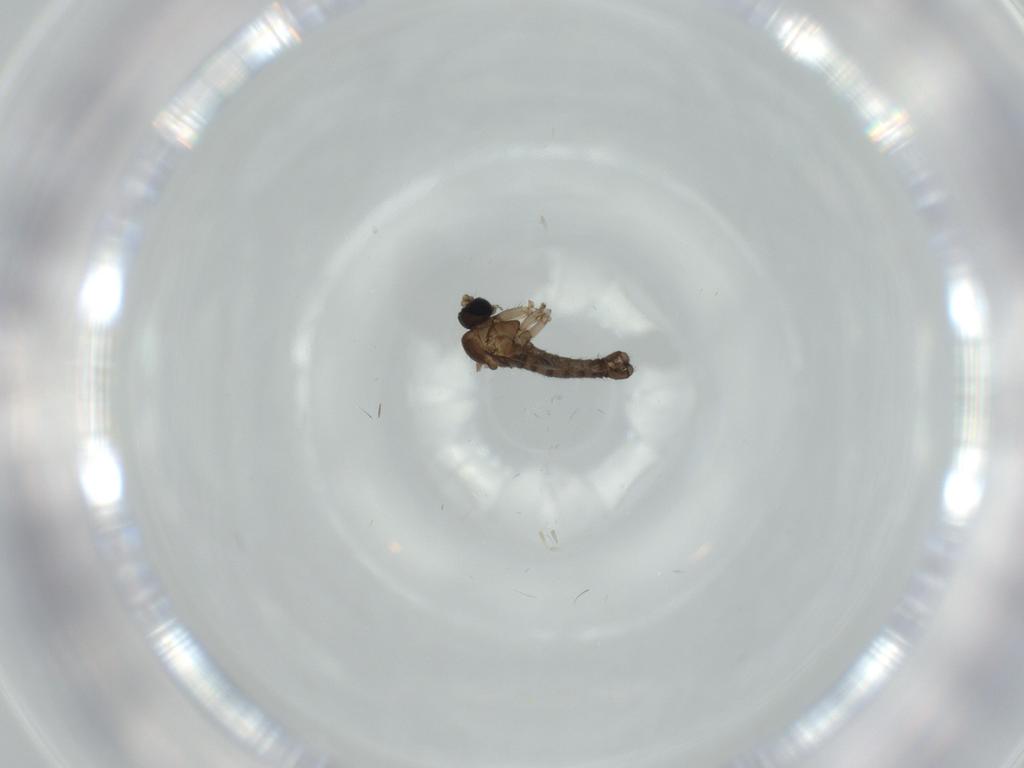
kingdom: Animalia
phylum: Arthropoda
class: Insecta
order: Diptera
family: Sciaridae
